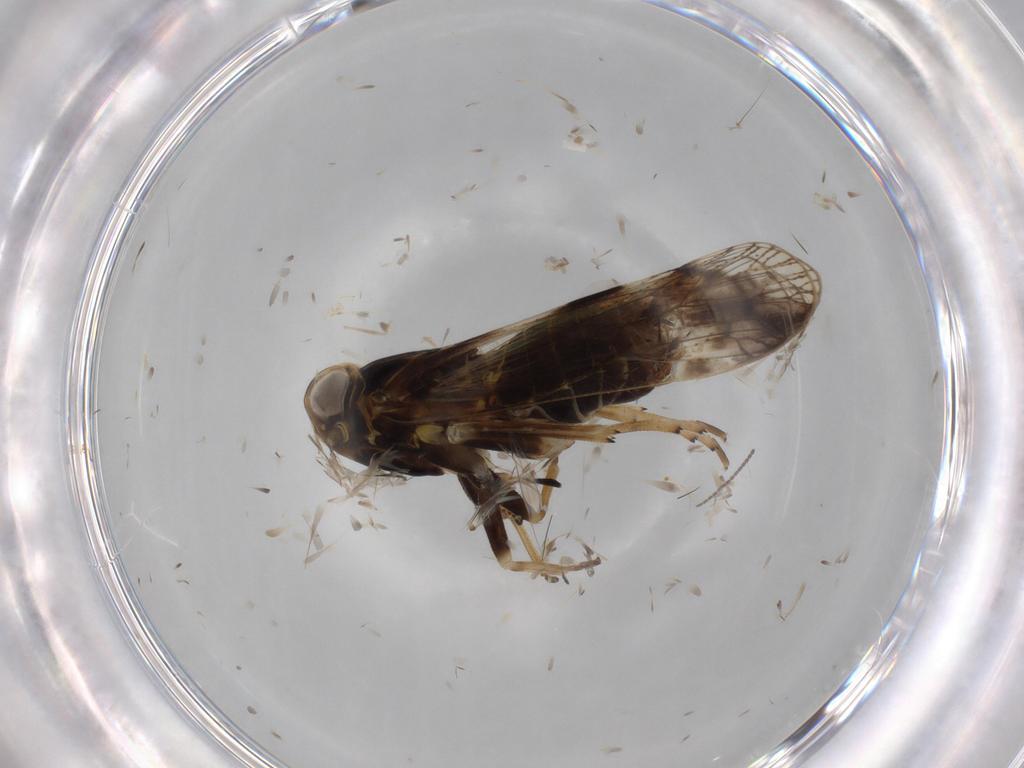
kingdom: Animalia
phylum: Arthropoda
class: Insecta
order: Hemiptera
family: Cixiidae
